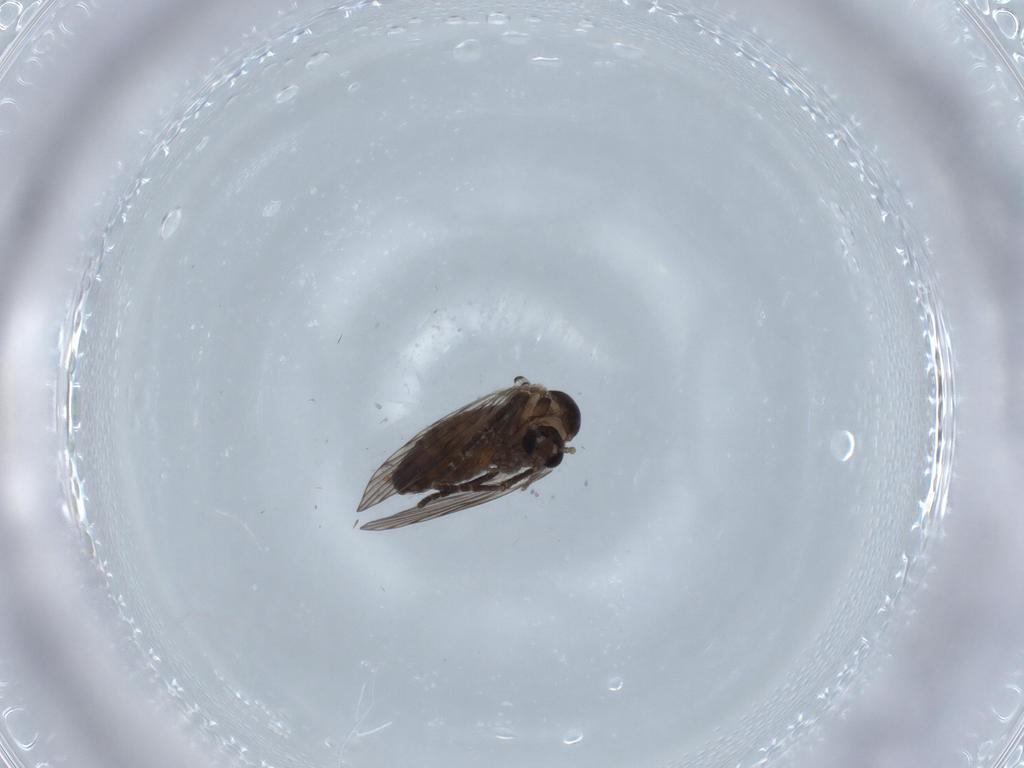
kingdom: Animalia
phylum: Arthropoda
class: Insecta
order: Diptera
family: Psychodidae
